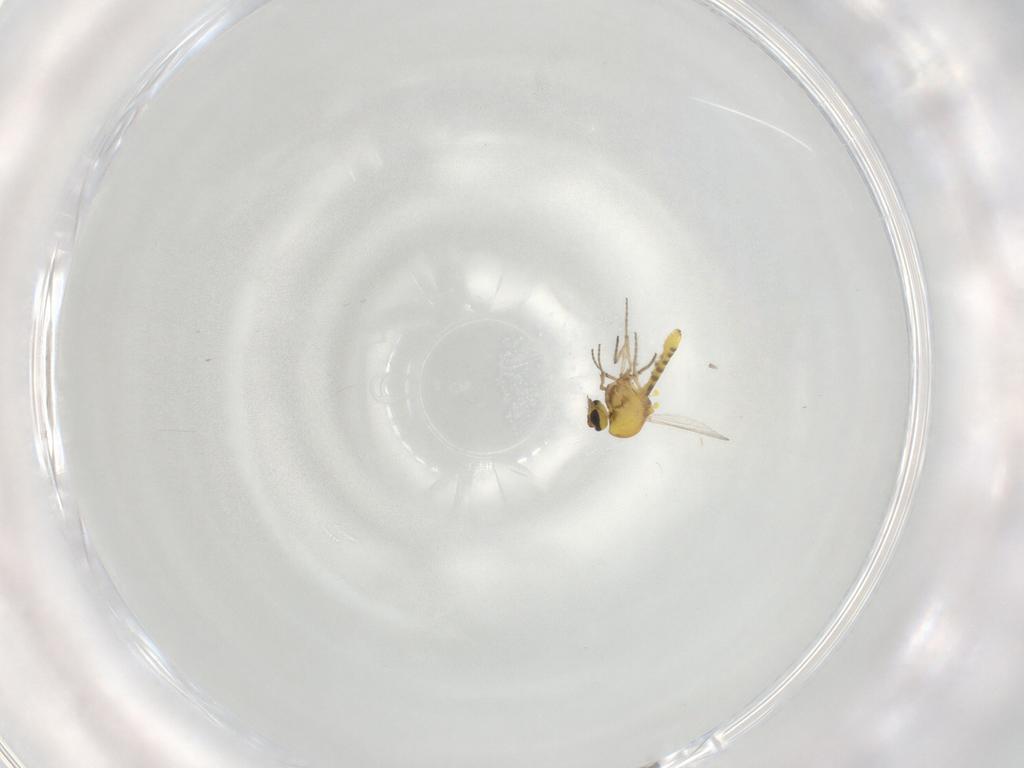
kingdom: Animalia
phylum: Arthropoda
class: Insecta
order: Diptera
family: Ceratopogonidae
